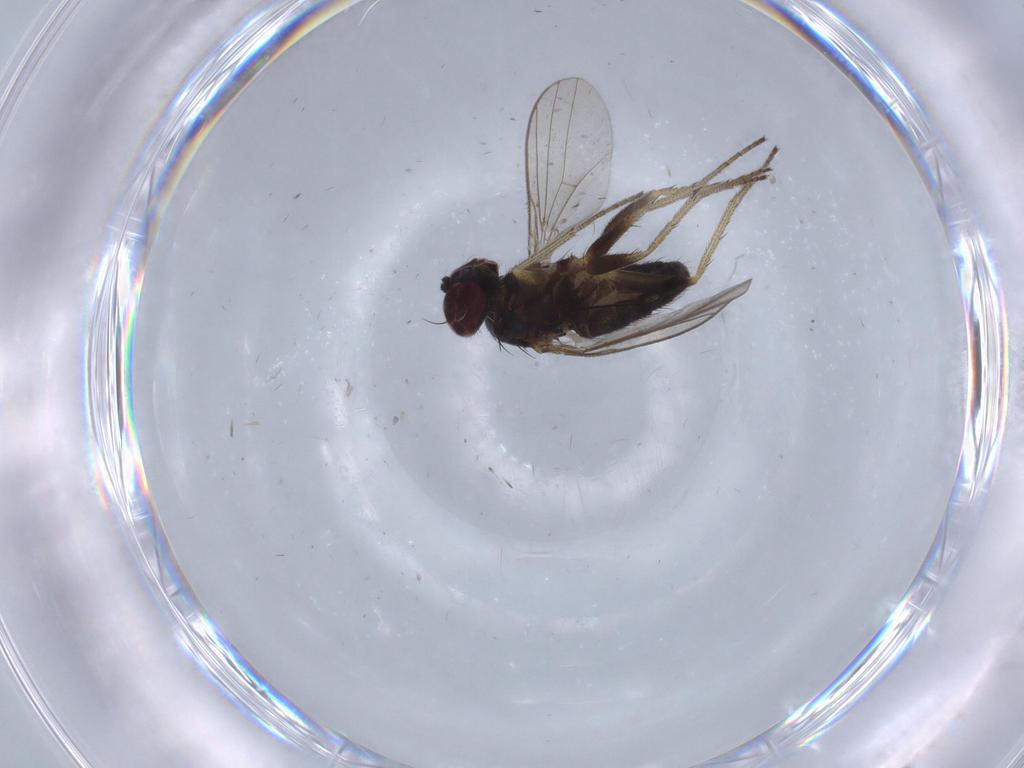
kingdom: Animalia
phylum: Arthropoda
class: Insecta
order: Diptera
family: Dolichopodidae
